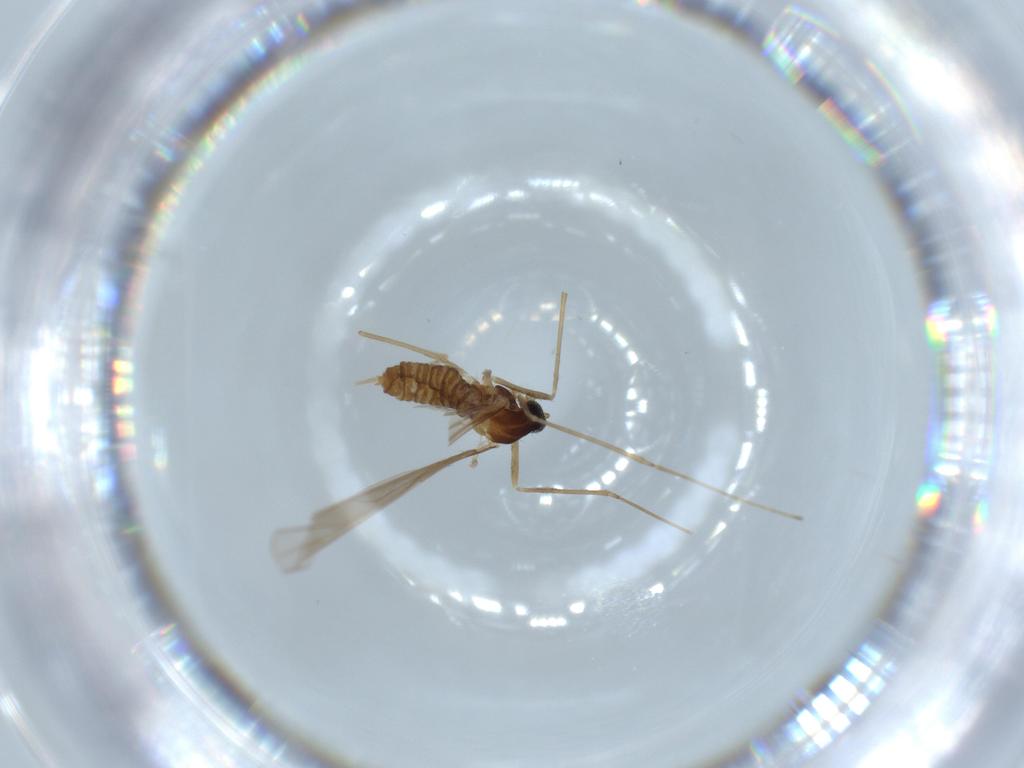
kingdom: Animalia
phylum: Arthropoda
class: Insecta
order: Diptera
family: Cecidomyiidae
